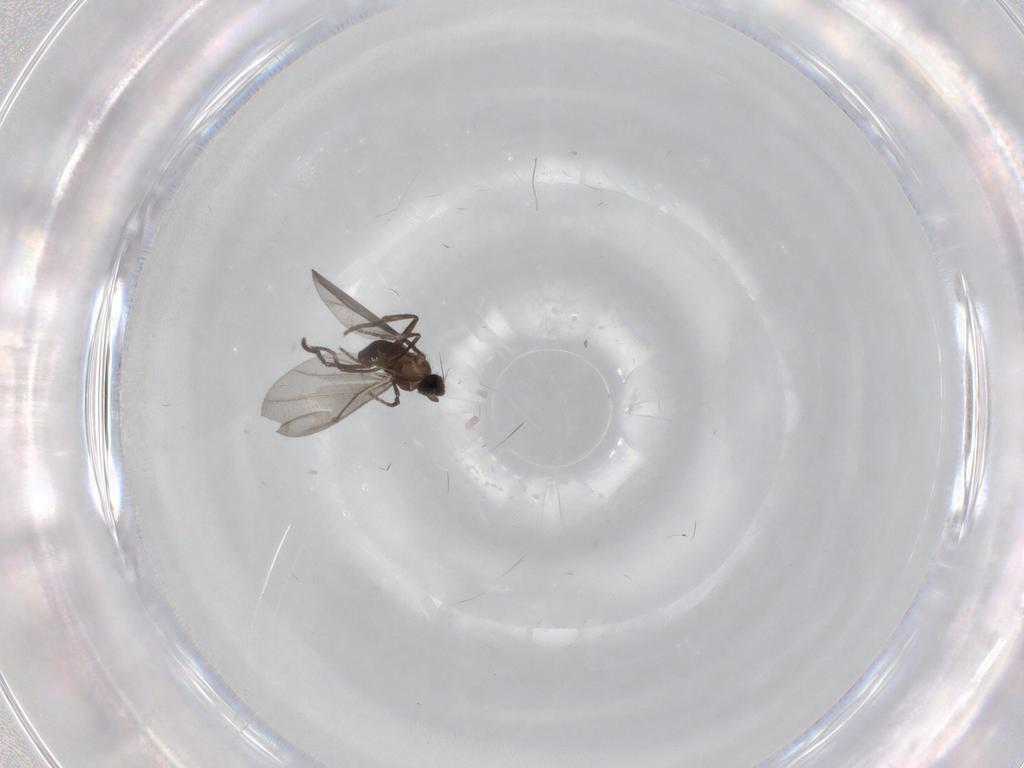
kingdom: Animalia
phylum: Arthropoda
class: Insecta
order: Diptera
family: Phoridae
